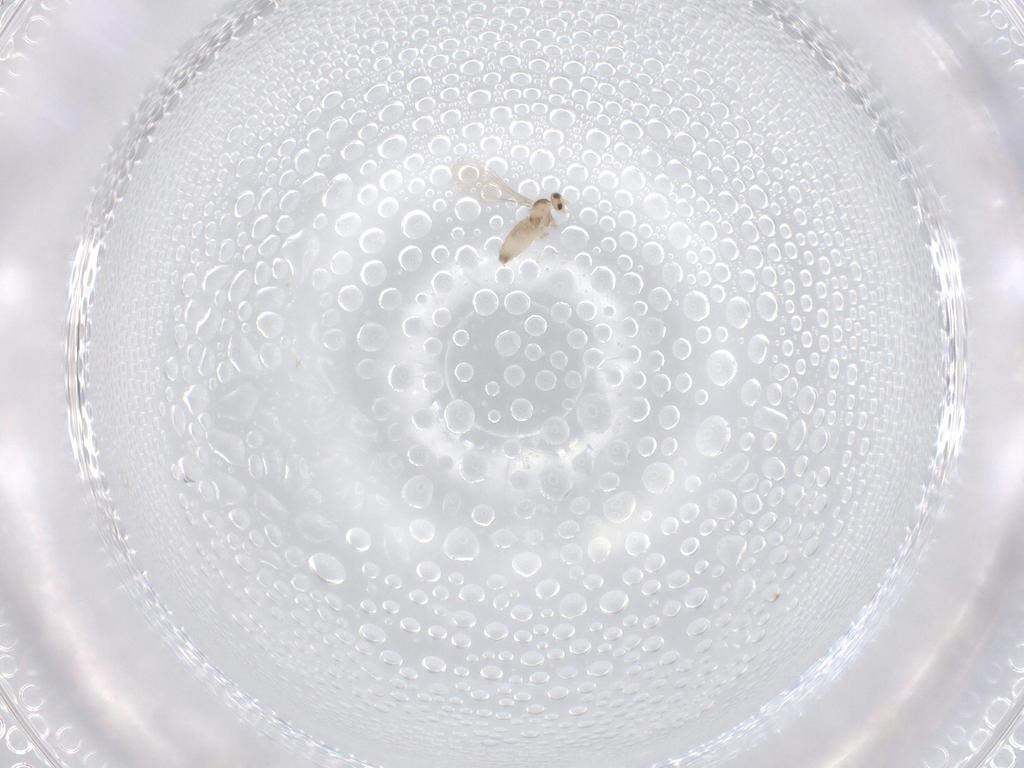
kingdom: Animalia
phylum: Arthropoda
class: Insecta
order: Diptera
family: Cecidomyiidae
